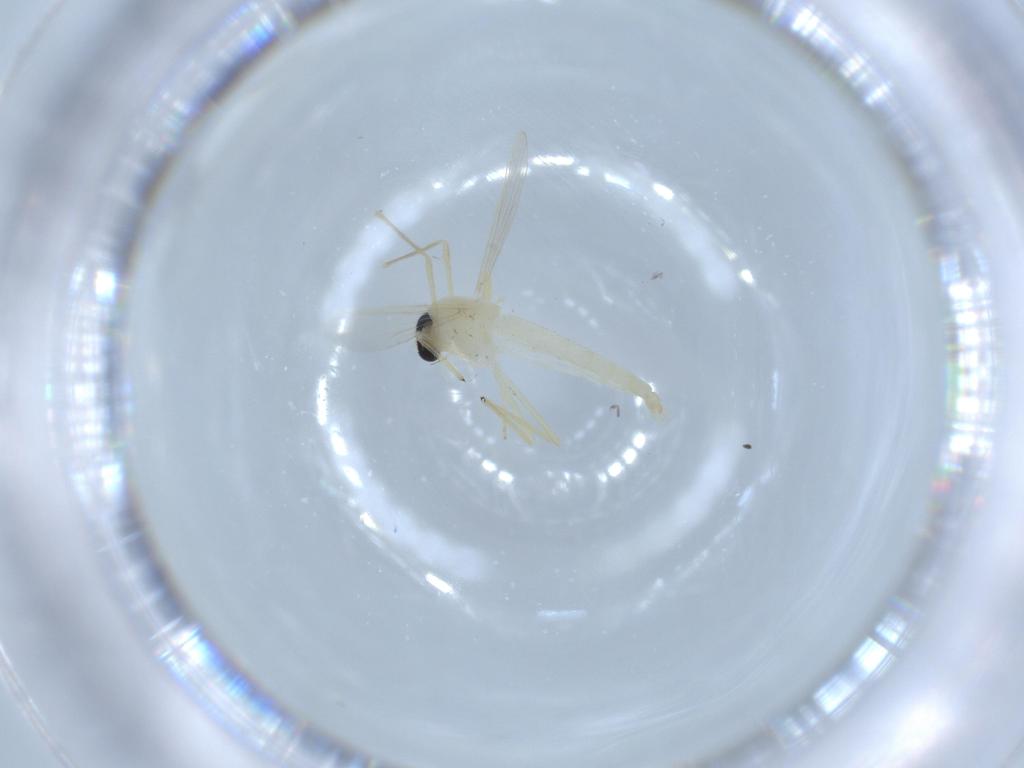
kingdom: Animalia
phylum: Arthropoda
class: Insecta
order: Diptera
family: Chironomidae
